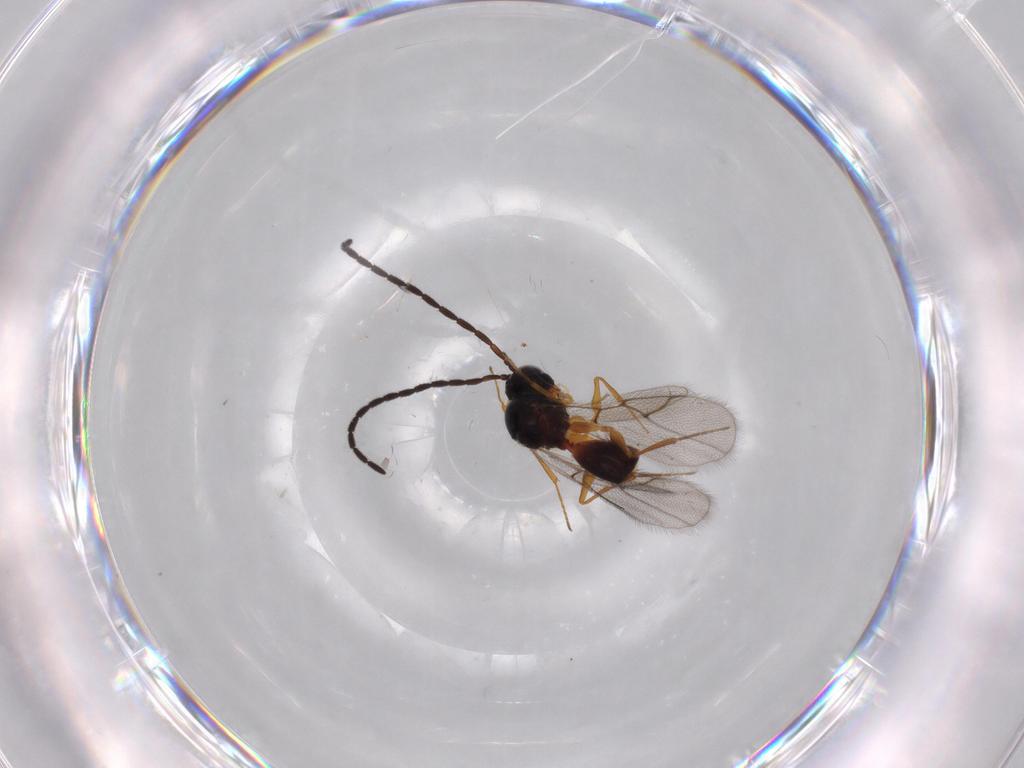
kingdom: Animalia
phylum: Arthropoda
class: Insecta
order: Hymenoptera
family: Figitidae
